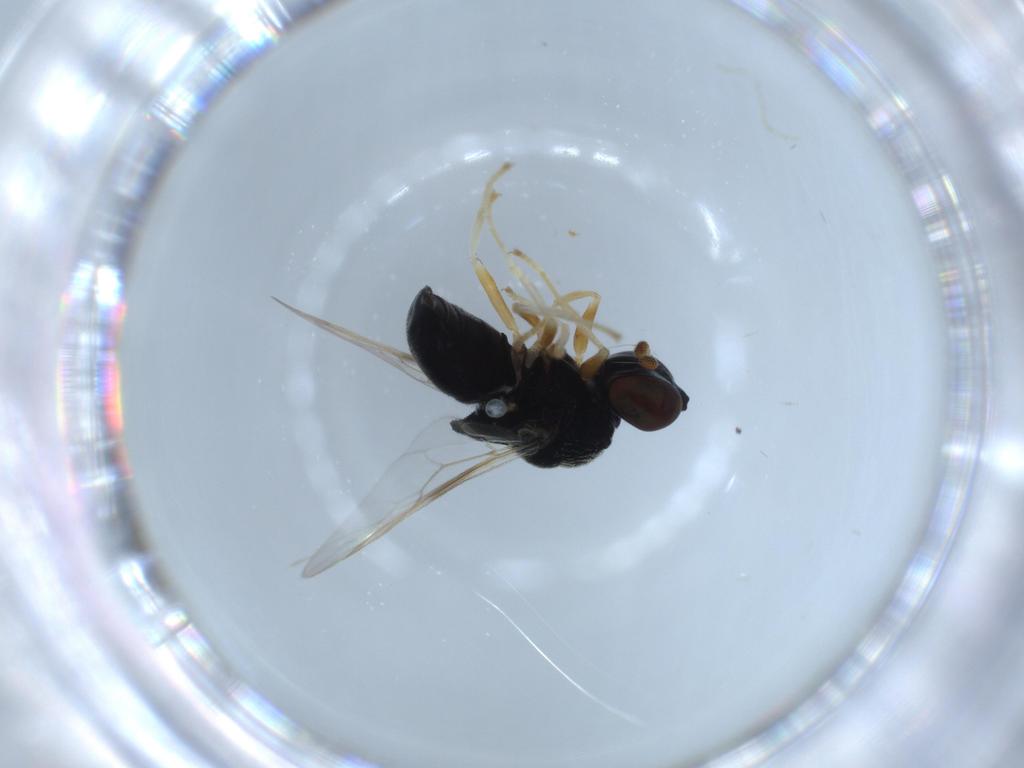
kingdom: Animalia
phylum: Arthropoda
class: Insecta
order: Diptera
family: Stratiomyidae
